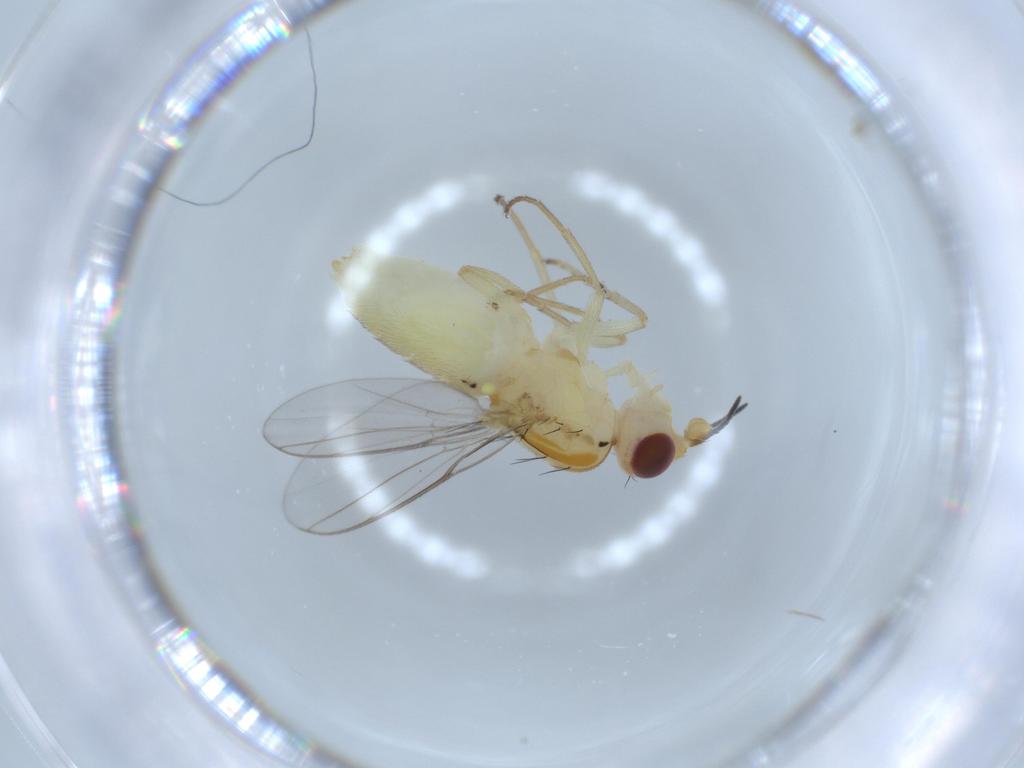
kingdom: Animalia
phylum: Arthropoda
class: Insecta
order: Diptera
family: Chloropidae
